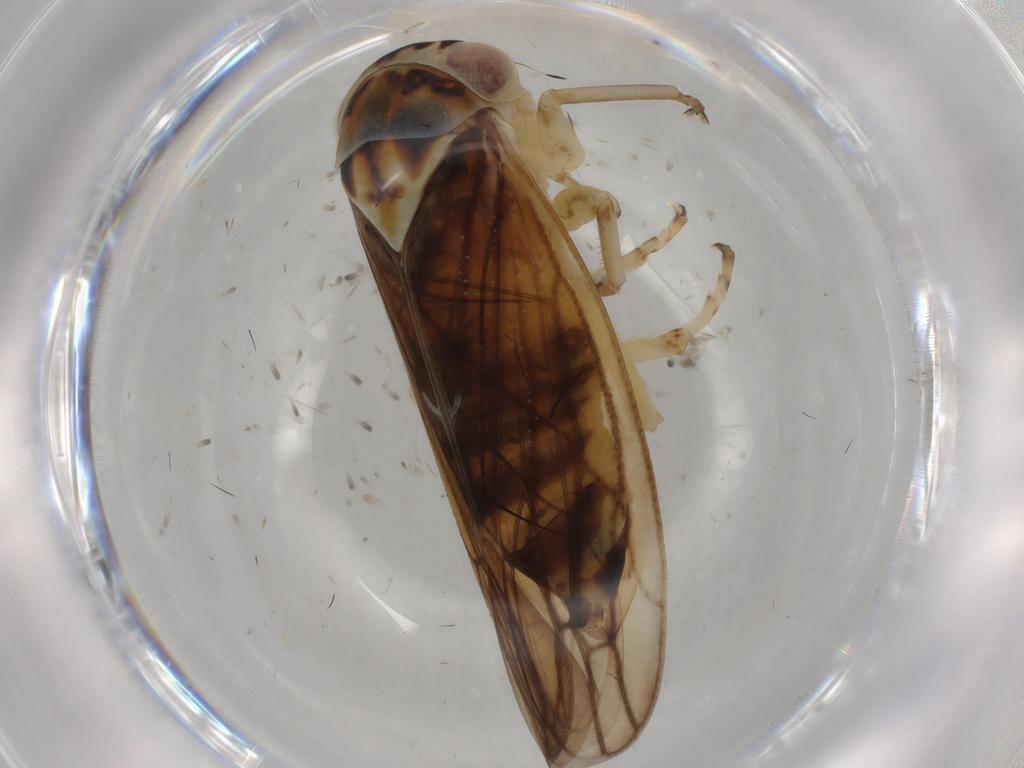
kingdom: Animalia
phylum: Arthropoda
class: Insecta
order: Hemiptera
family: Cicadellidae
